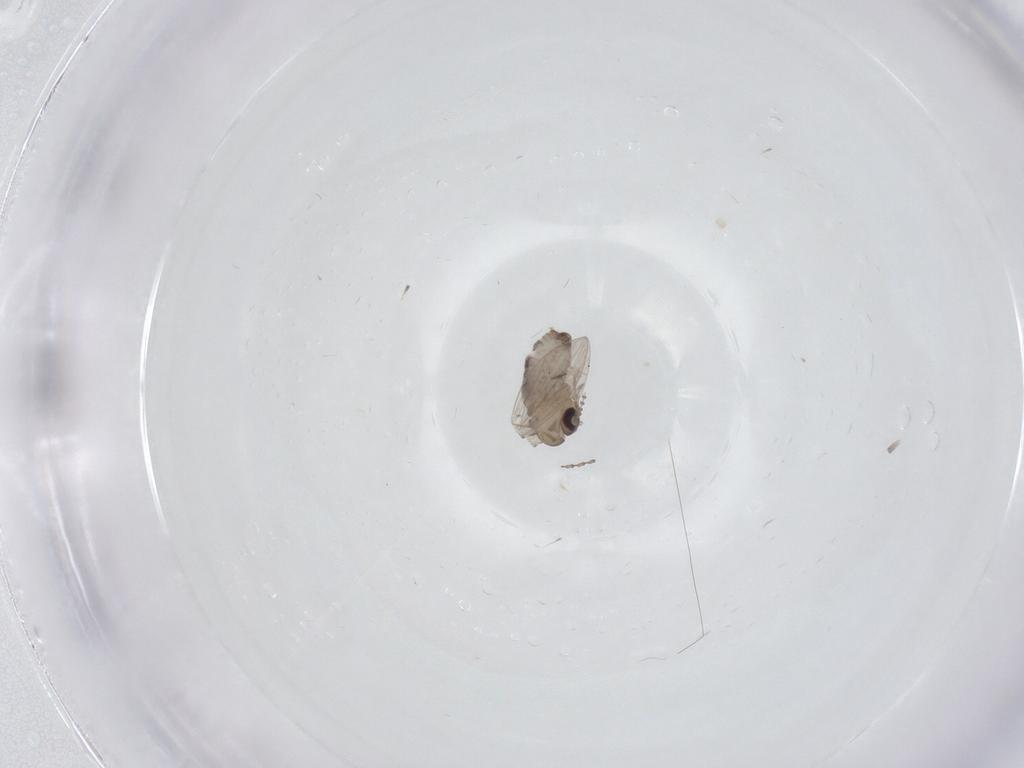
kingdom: Animalia
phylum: Arthropoda
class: Insecta
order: Diptera
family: Psychodidae
